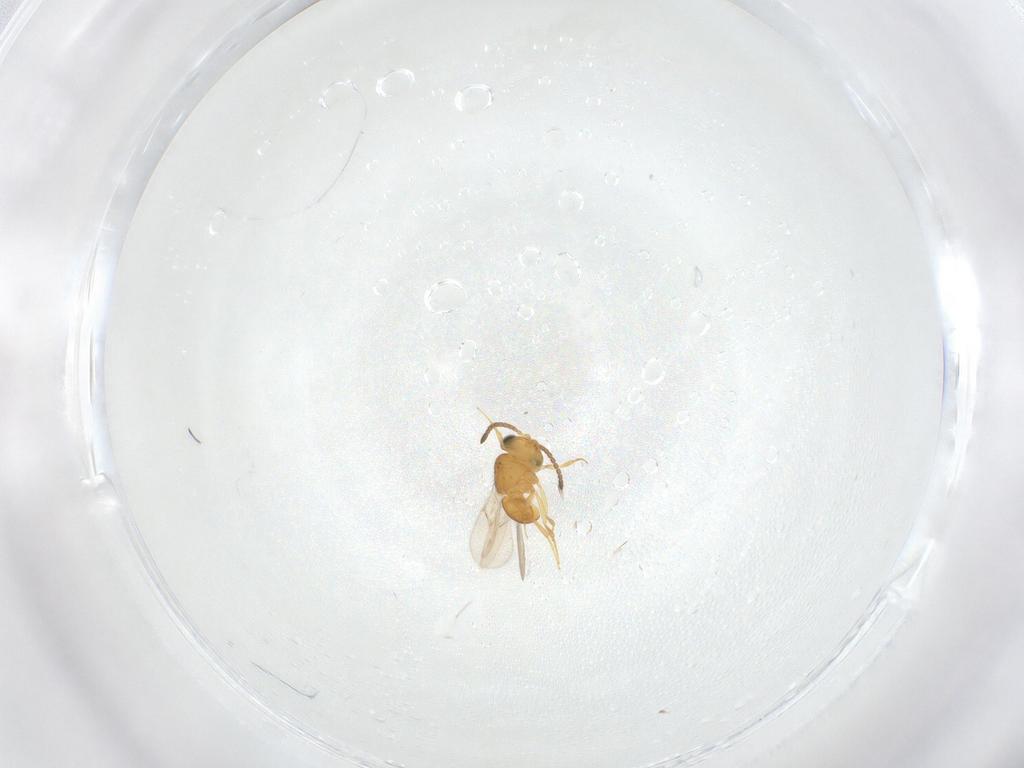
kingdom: Animalia
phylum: Arthropoda
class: Insecta
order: Hymenoptera
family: Scelionidae
